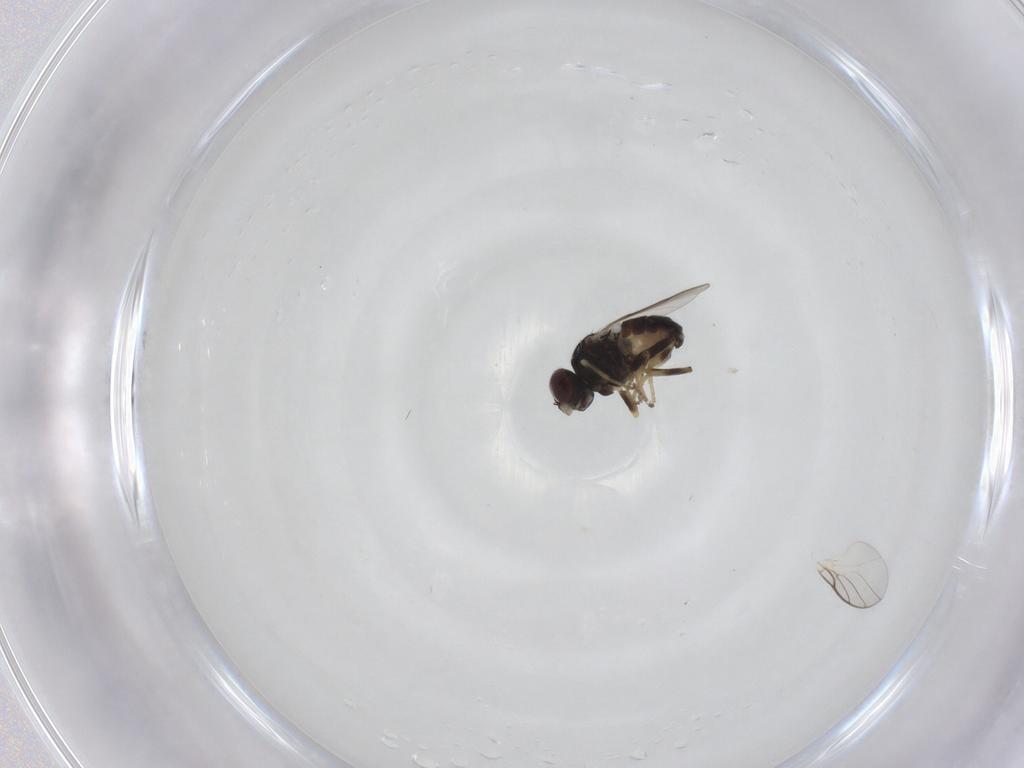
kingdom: Animalia
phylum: Arthropoda
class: Insecta
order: Diptera
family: Chloropidae
